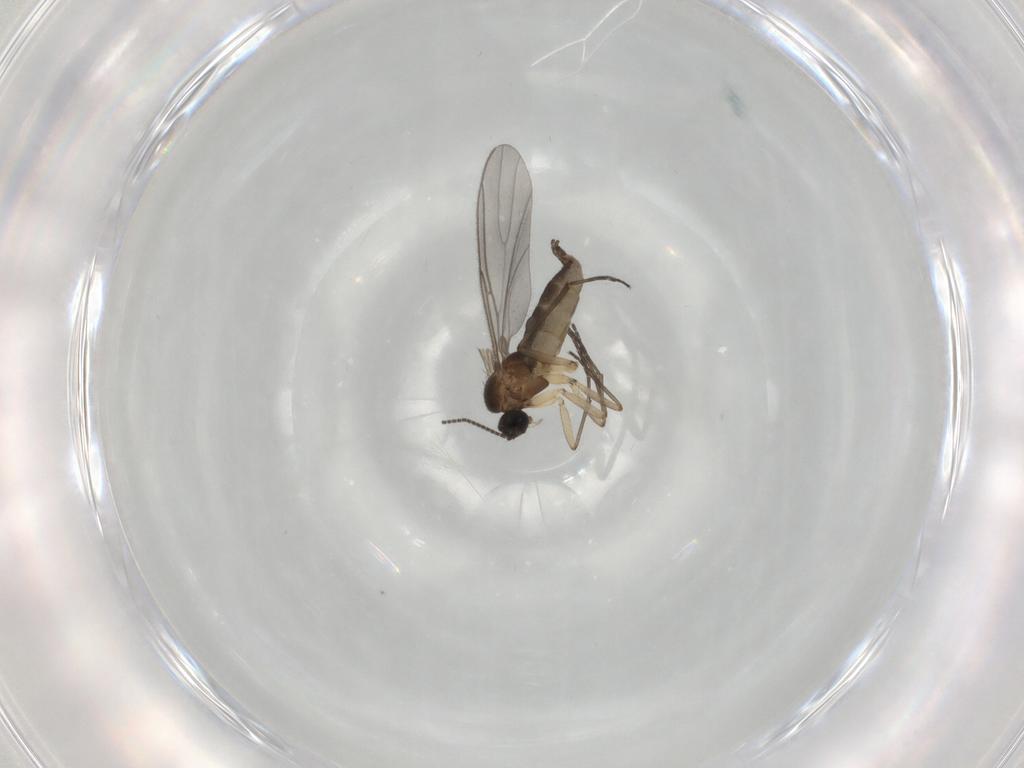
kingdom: Animalia
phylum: Arthropoda
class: Insecta
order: Diptera
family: Sciaridae
